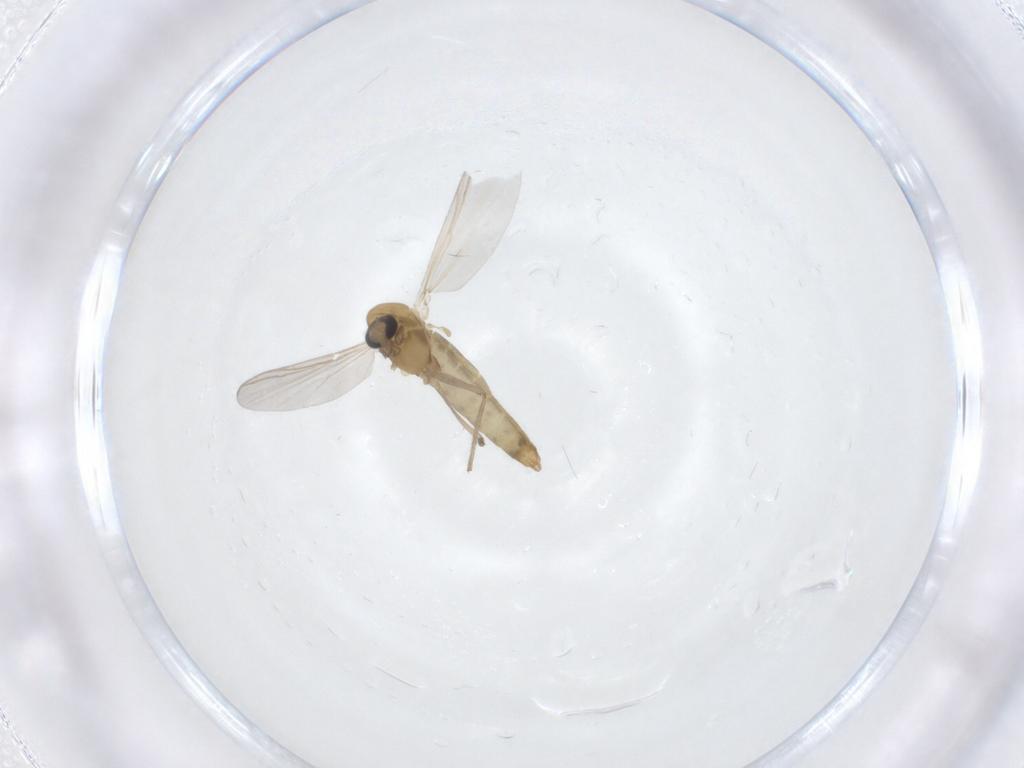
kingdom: Animalia
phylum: Arthropoda
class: Insecta
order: Diptera
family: Chironomidae
